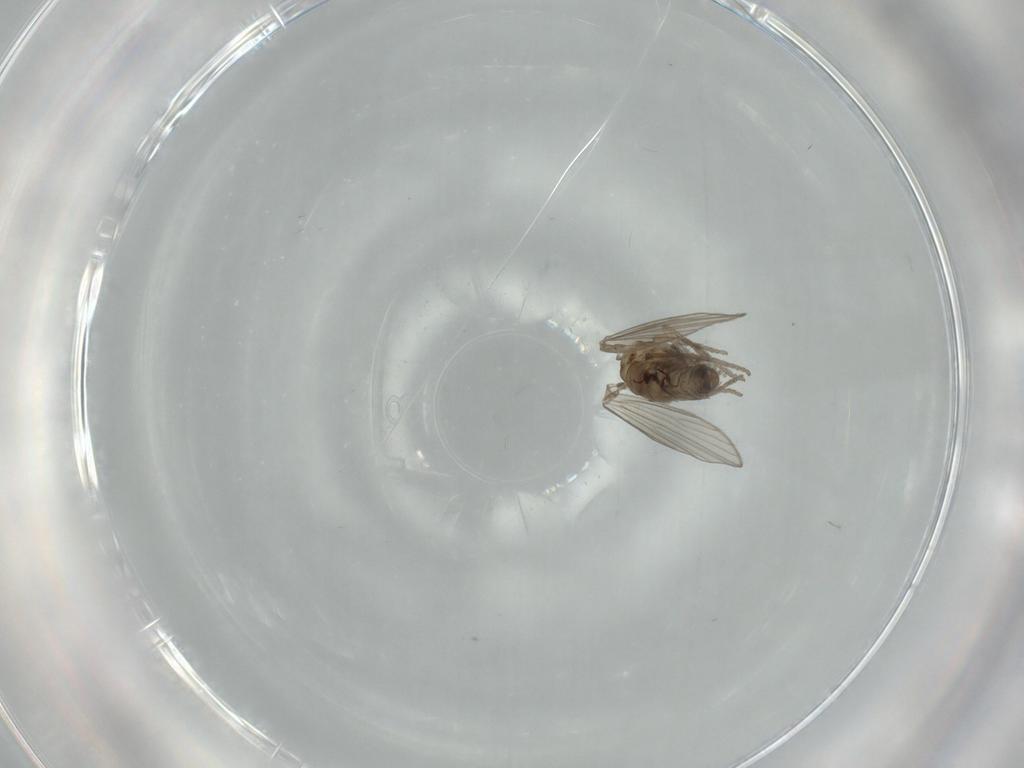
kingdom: Animalia
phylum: Arthropoda
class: Insecta
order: Diptera
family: Psychodidae
